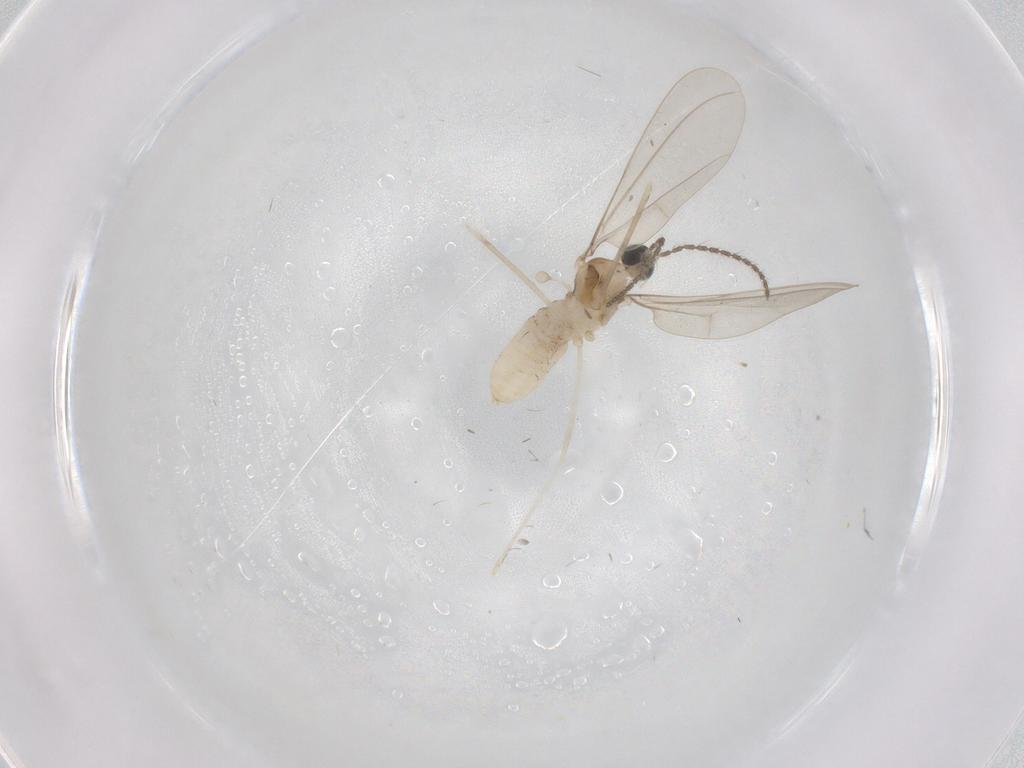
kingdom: Animalia
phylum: Arthropoda
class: Insecta
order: Diptera
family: Cecidomyiidae
